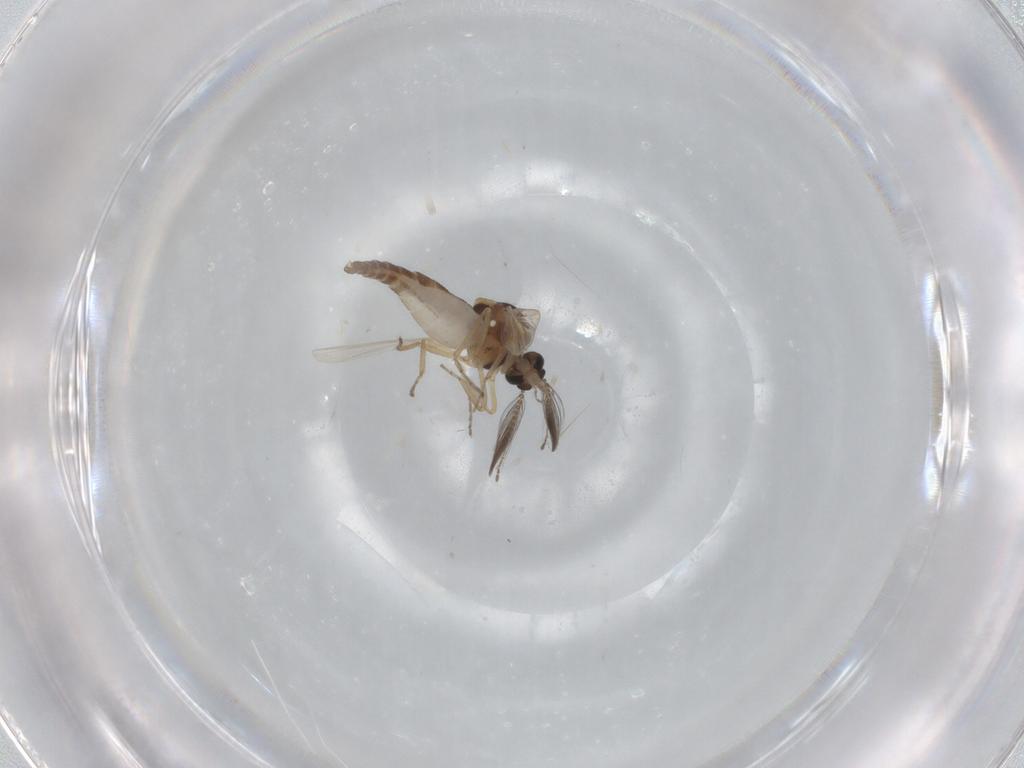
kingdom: Animalia
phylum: Arthropoda
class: Insecta
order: Diptera
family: Ceratopogonidae
